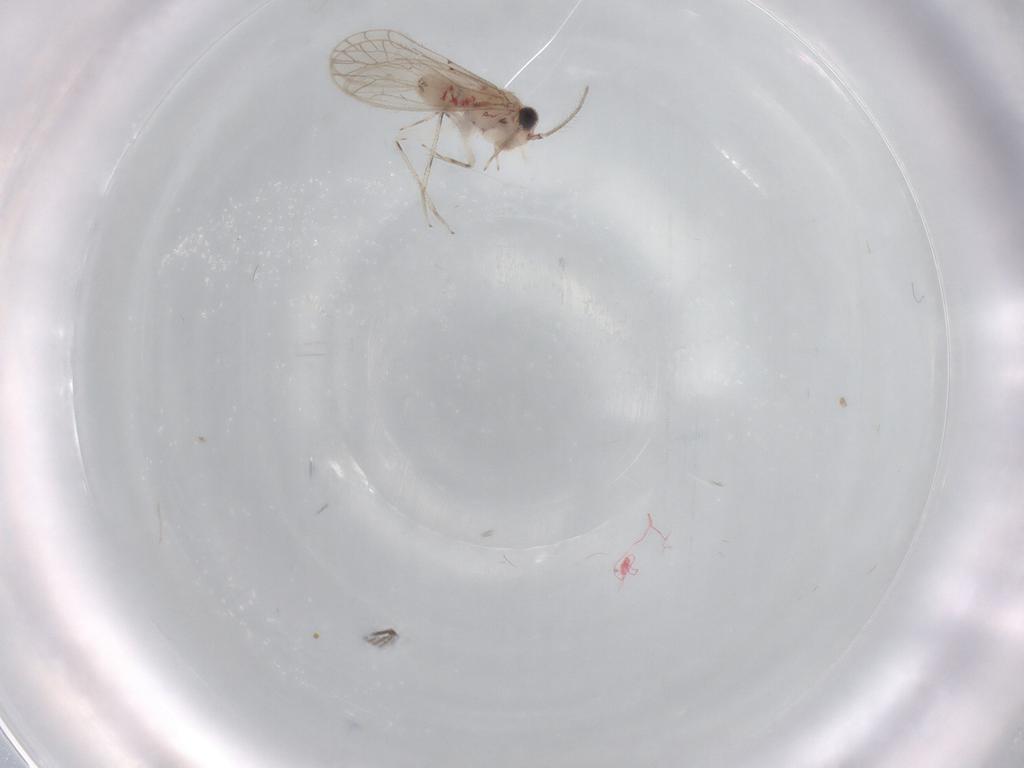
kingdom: Animalia
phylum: Arthropoda
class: Insecta
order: Psocodea
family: Caeciliusidae
